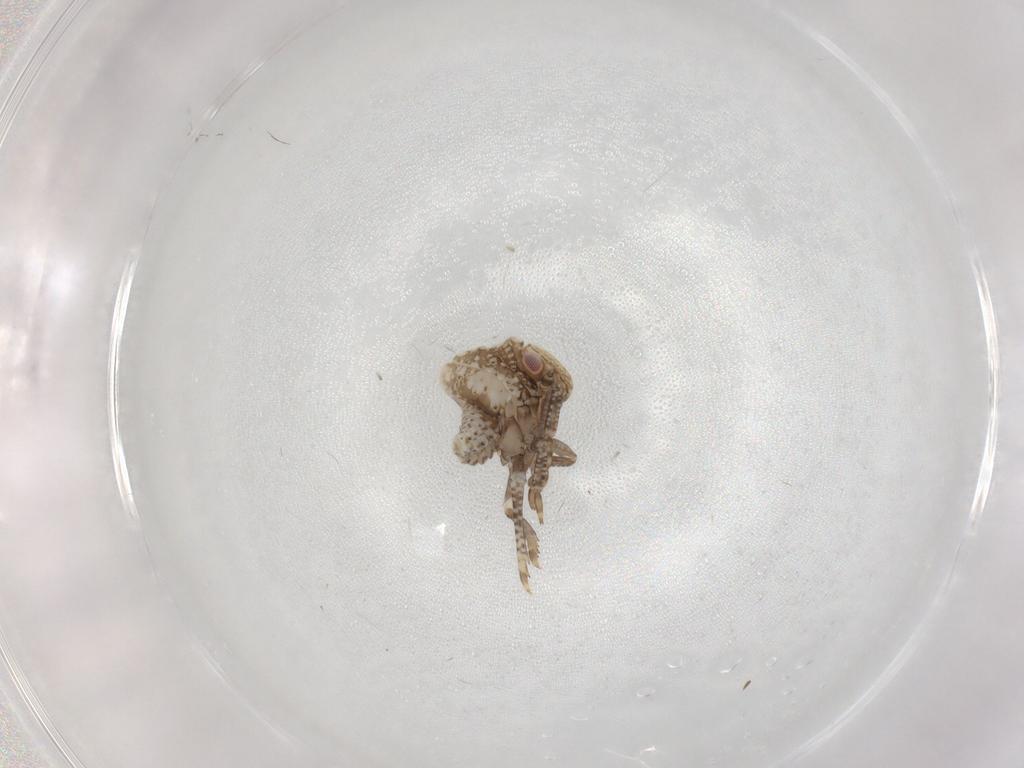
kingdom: Animalia
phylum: Arthropoda
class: Insecta
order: Hemiptera
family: Acanaloniidae
